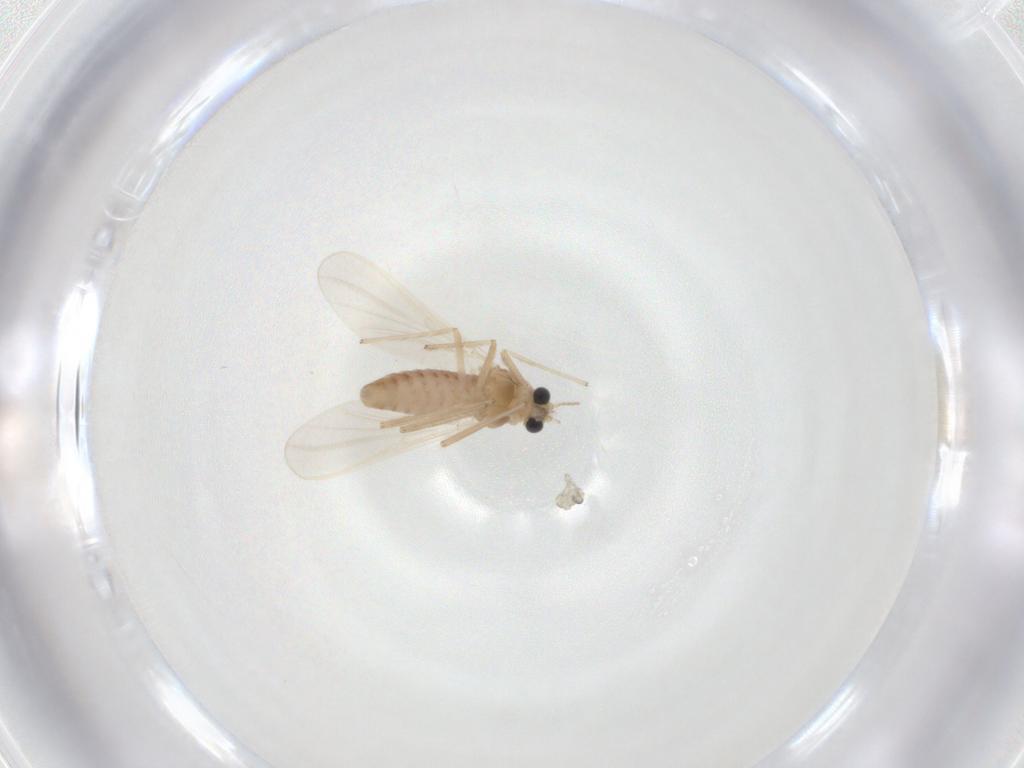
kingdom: Animalia
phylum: Arthropoda
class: Insecta
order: Diptera
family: Chironomidae
